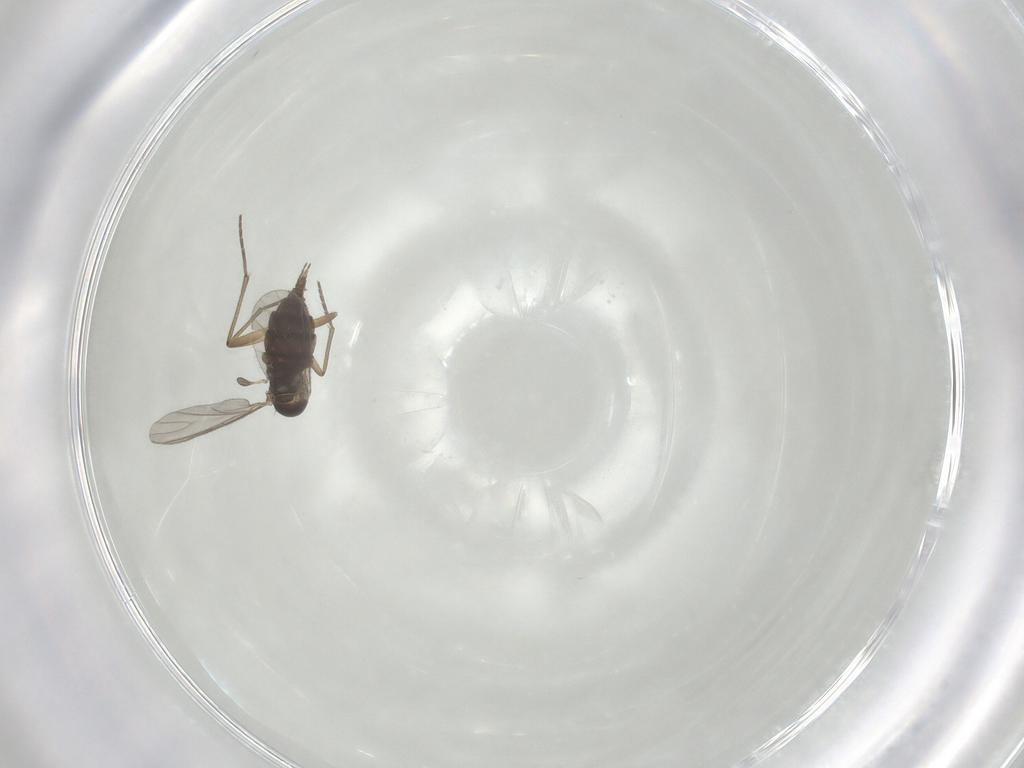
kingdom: Animalia
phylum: Arthropoda
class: Insecta
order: Diptera
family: Sciaridae
